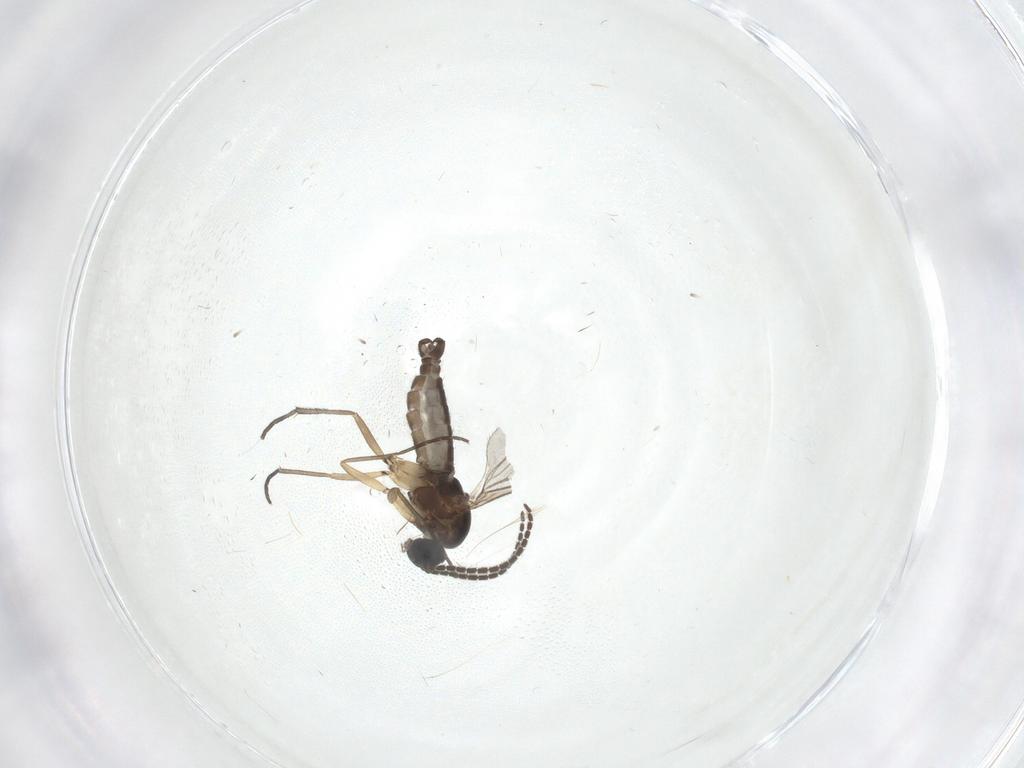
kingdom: Animalia
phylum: Arthropoda
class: Insecta
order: Diptera
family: Sciaridae
